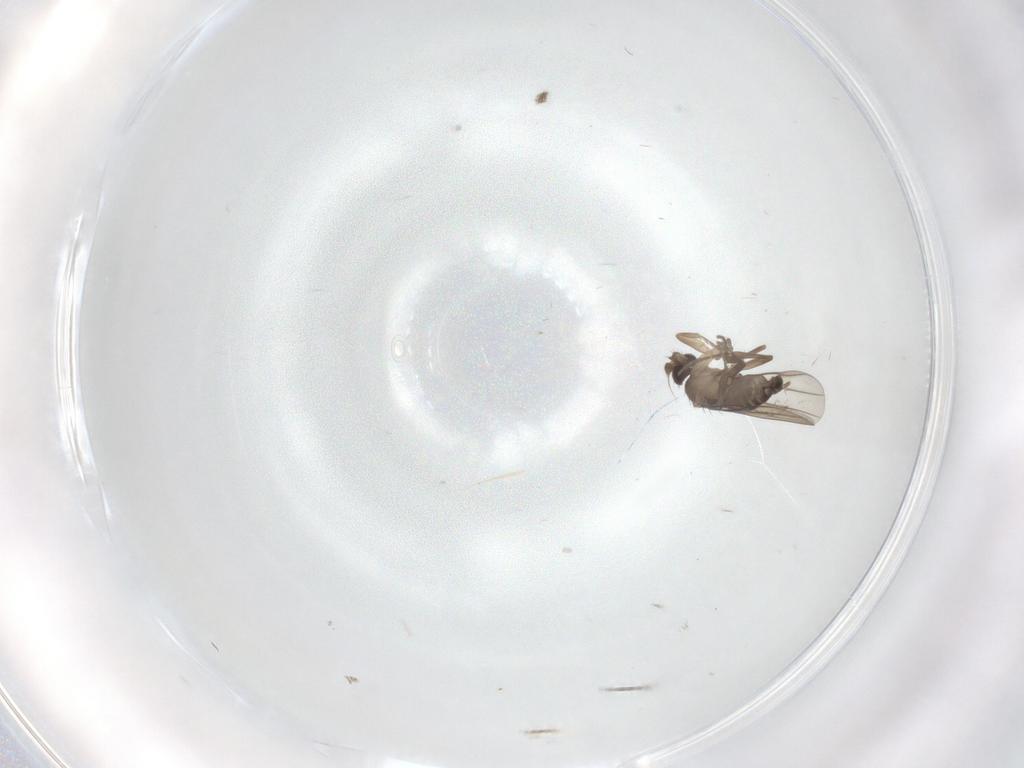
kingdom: Animalia
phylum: Arthropoda
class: Insecta
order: Diptera
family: Phoridae
